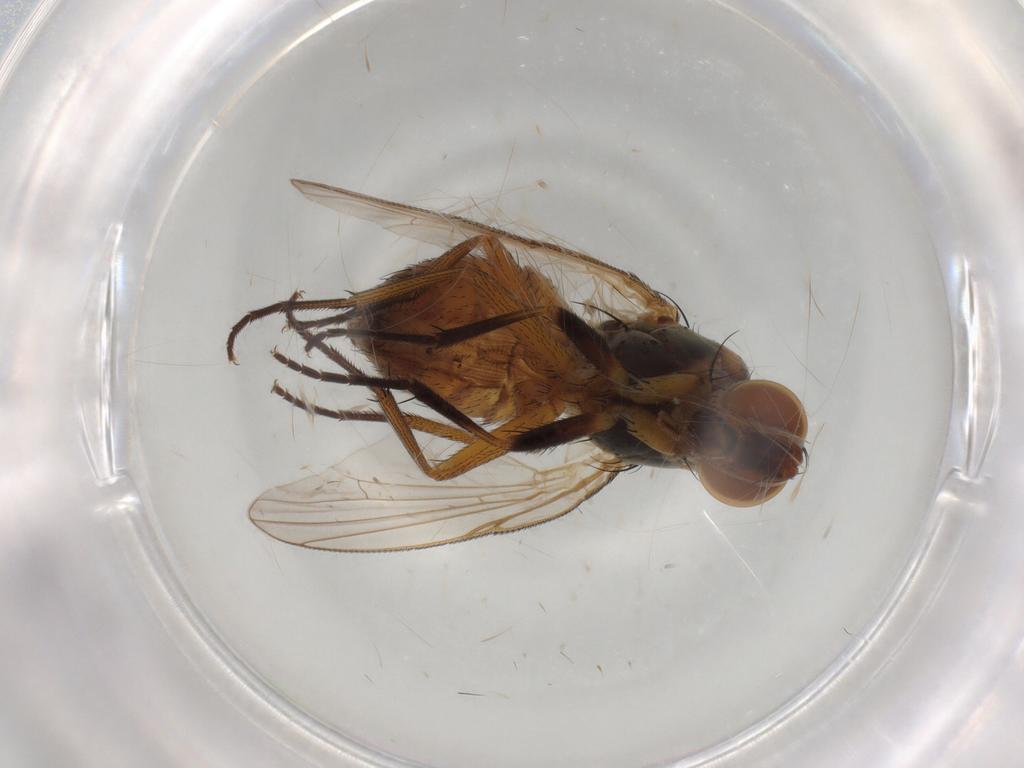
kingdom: Animalia
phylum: Arthropoda
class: Insecta
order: Diptera
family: Muscidae
